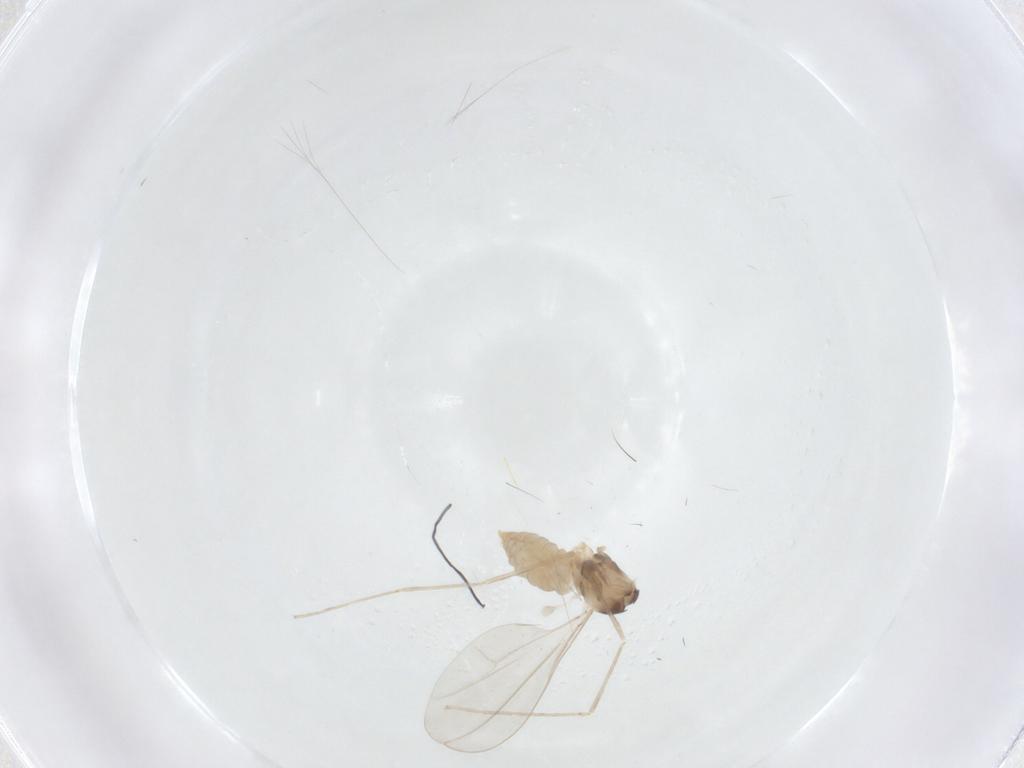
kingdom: Animalia
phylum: Arthropoda
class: Insecta
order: Diptera
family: Cecidomyiidae
